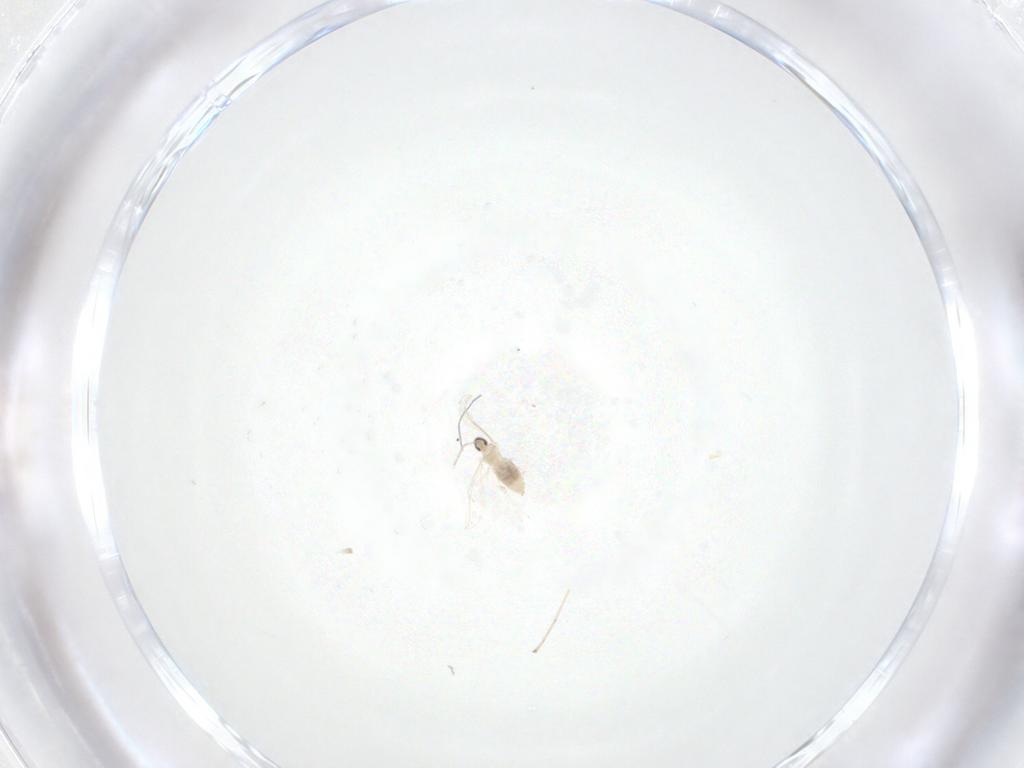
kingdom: Animalia
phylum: Arthropoda
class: Insecta
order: Diptera
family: Cecidomyiidae
